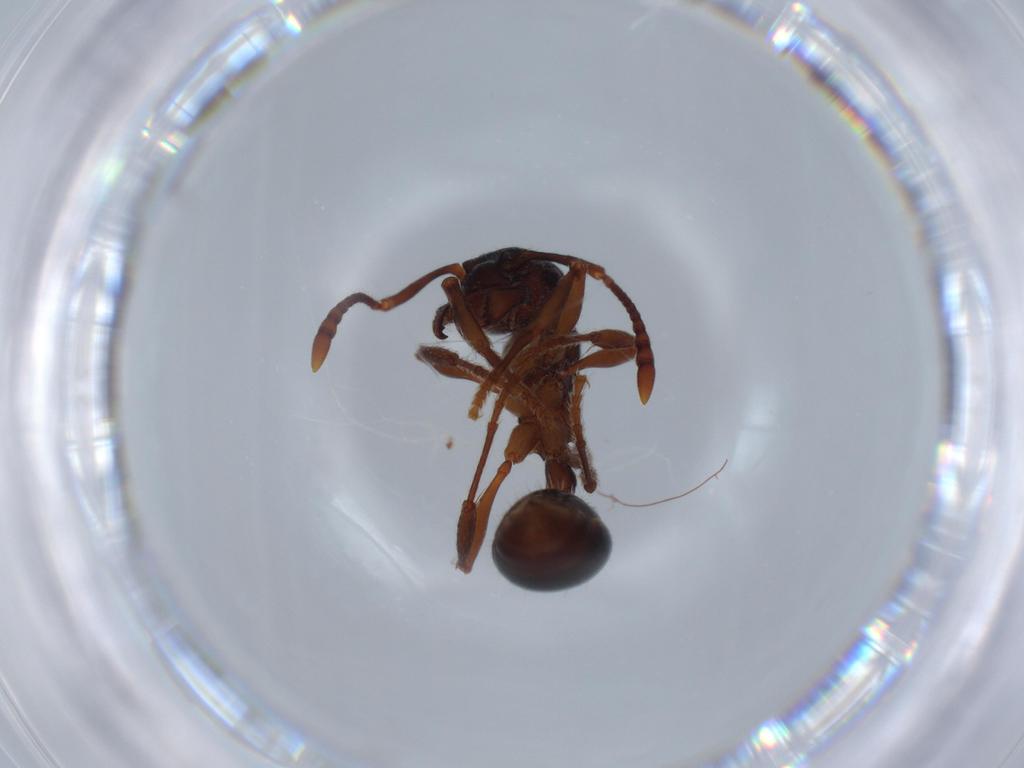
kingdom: Animalia
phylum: Arthropoda
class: Insecta
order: Hymenoptera
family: Formicidae
